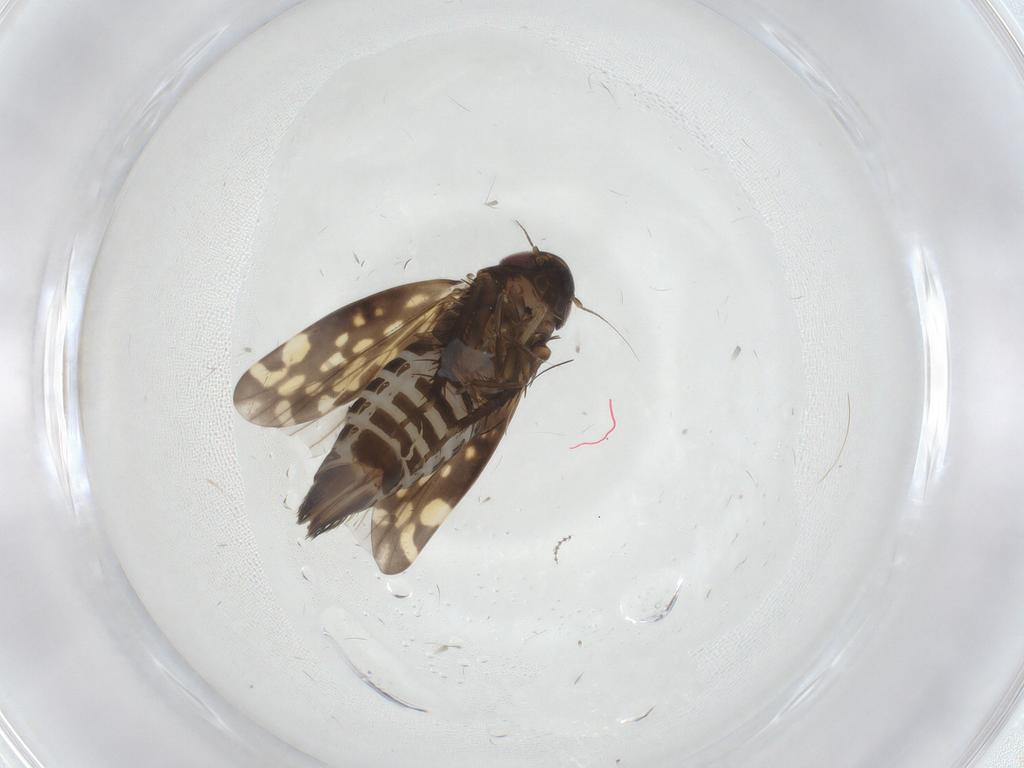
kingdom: Animalia
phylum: Arthropoda
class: Insecta
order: Hemiptera
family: Cicadellidae
